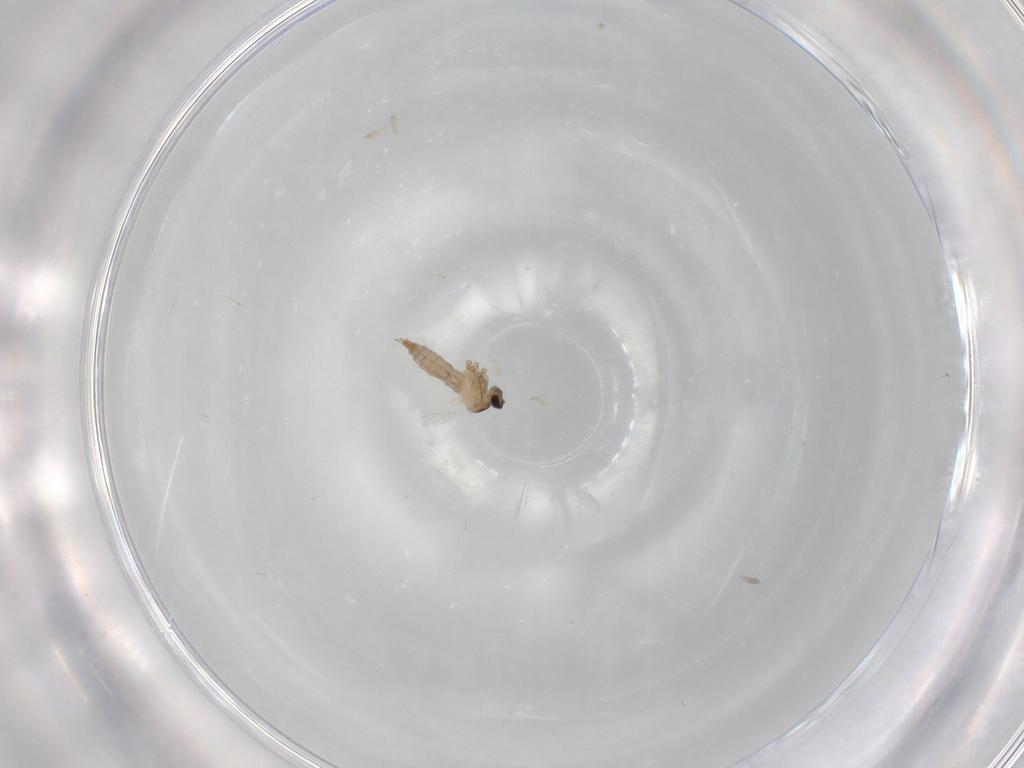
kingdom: Animalia
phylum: Arthropoda
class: Insecta
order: Diptera
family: Cecidomyiidae
